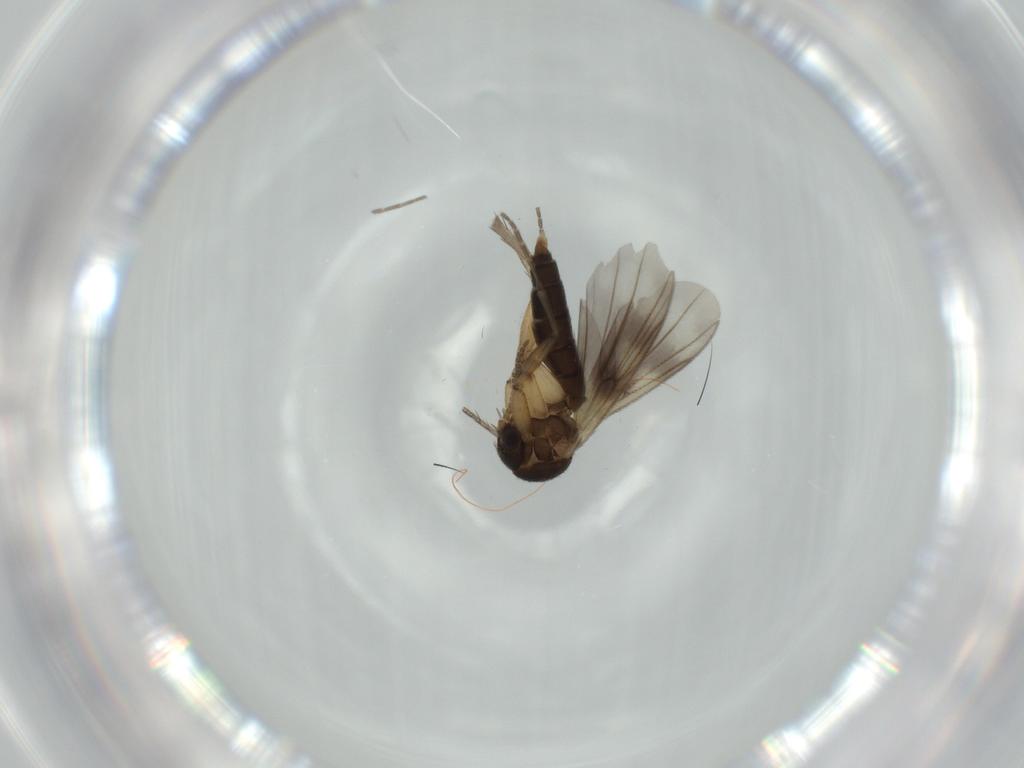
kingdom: Animalia
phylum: Arthropoda
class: Insecta
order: Diptera
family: Mycetophilidae
